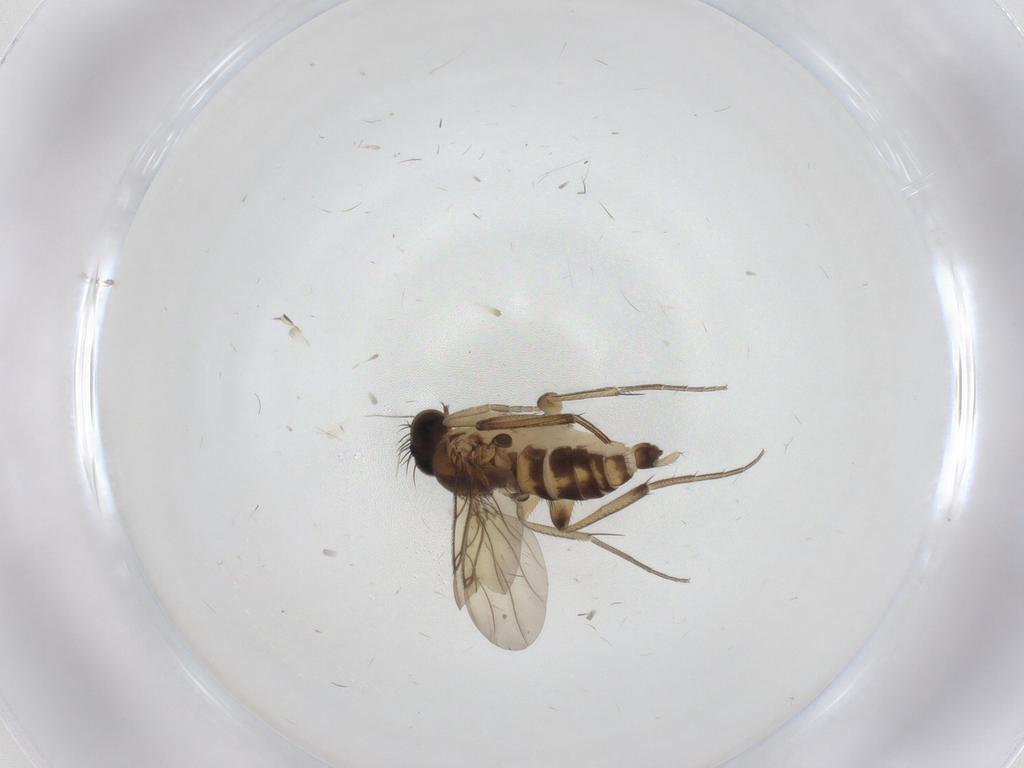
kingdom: Animalia
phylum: Arthropoda
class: Insecta
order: Diptera
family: Phoridae
